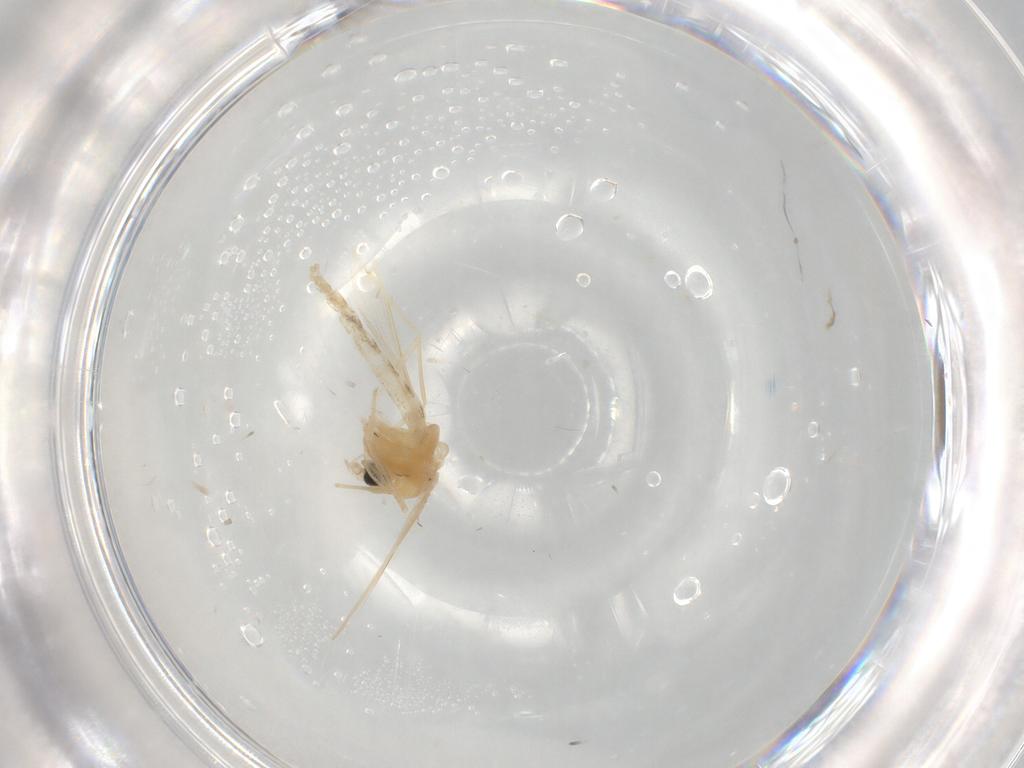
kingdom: Animalia
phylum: Arthropoda
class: Insecta
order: Diptera
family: Chironomidae
